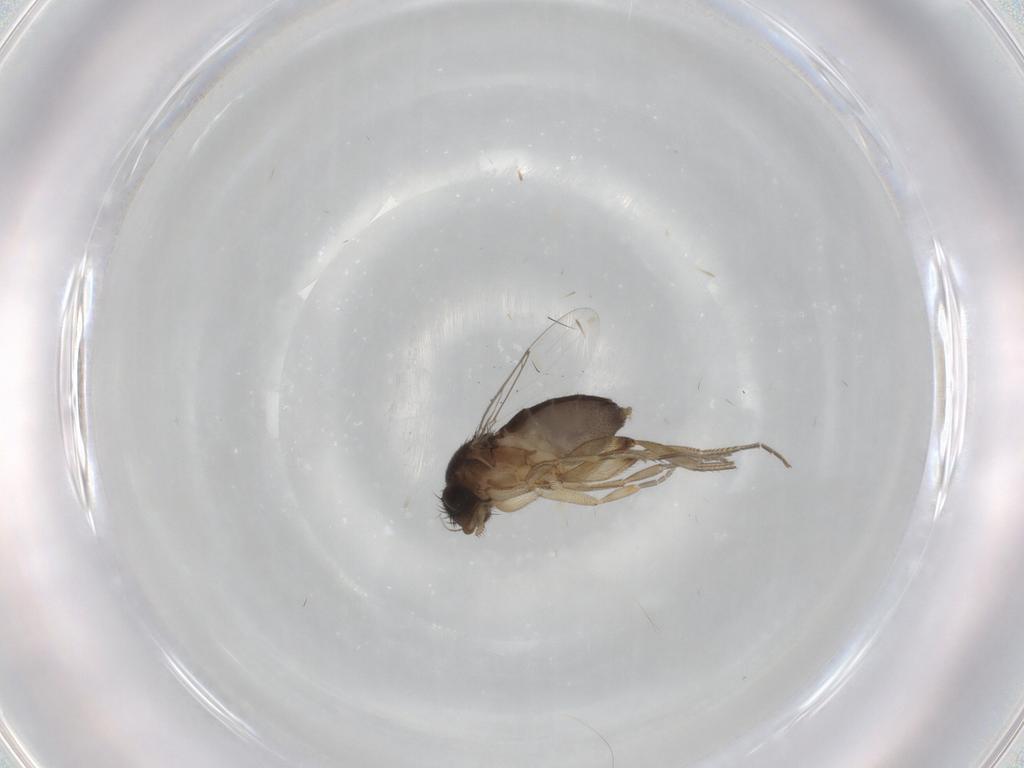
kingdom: Animalia
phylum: Arthropoda
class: Insecta
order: Diptera
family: Phoridae
